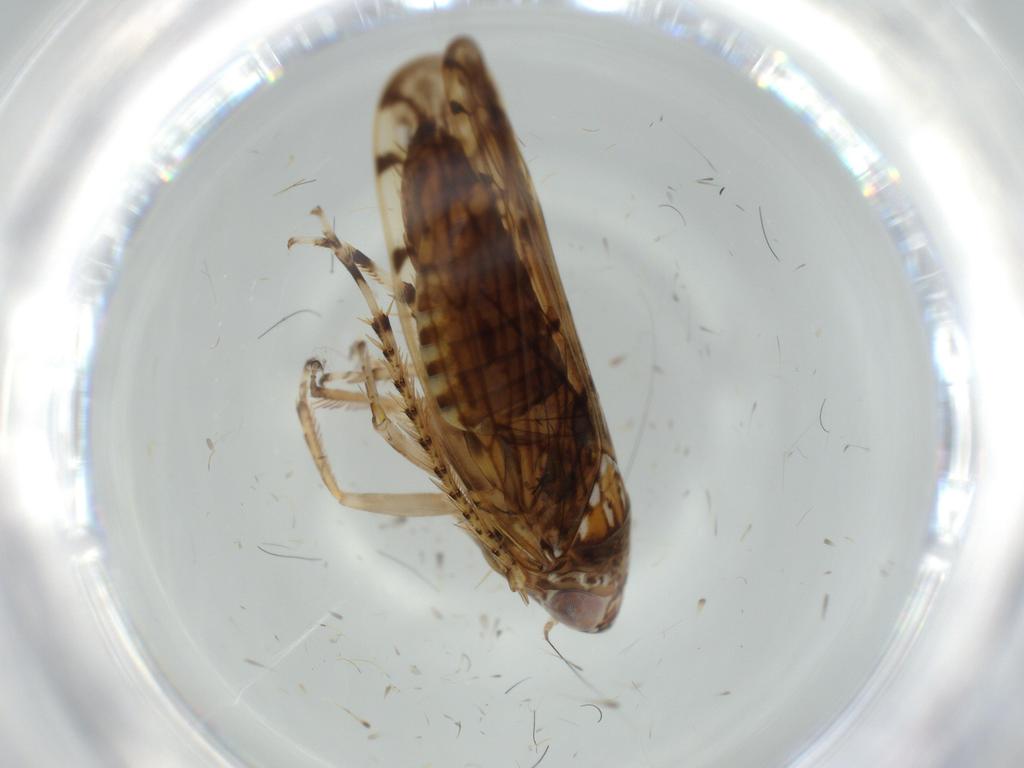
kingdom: Animalia
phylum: Arthropoda
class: Insecta
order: Hemiptera
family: Cicadellidae
